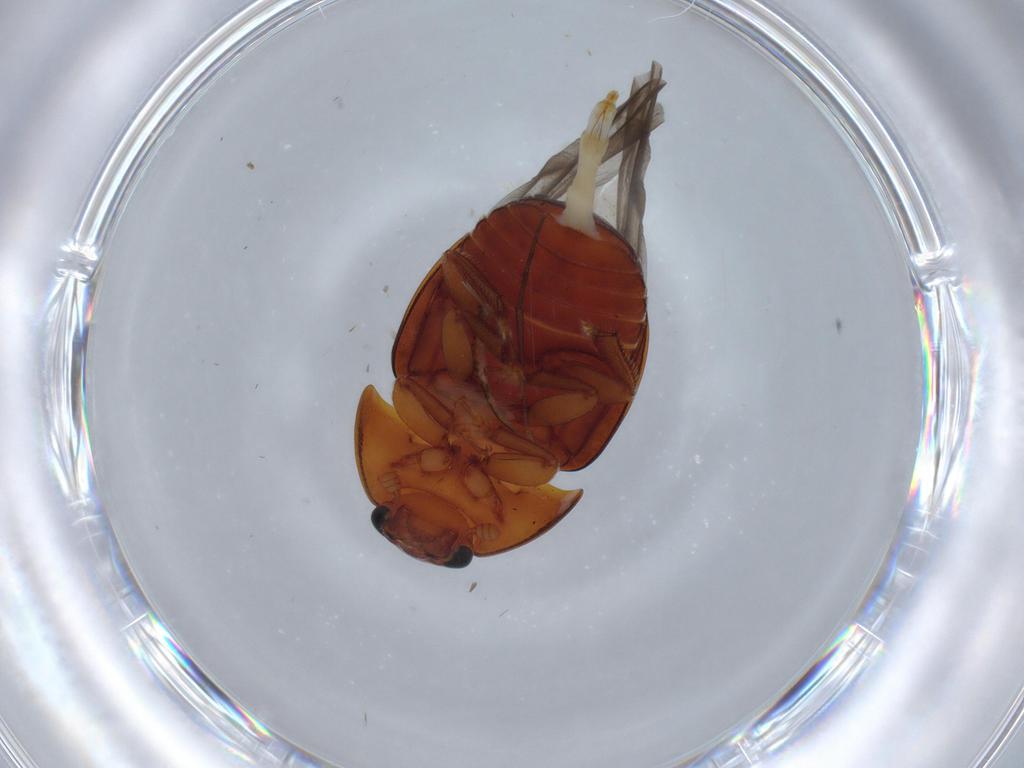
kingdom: Animalia
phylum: Arthropoda
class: Insecta
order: Coleoptera
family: Nitidulidae
